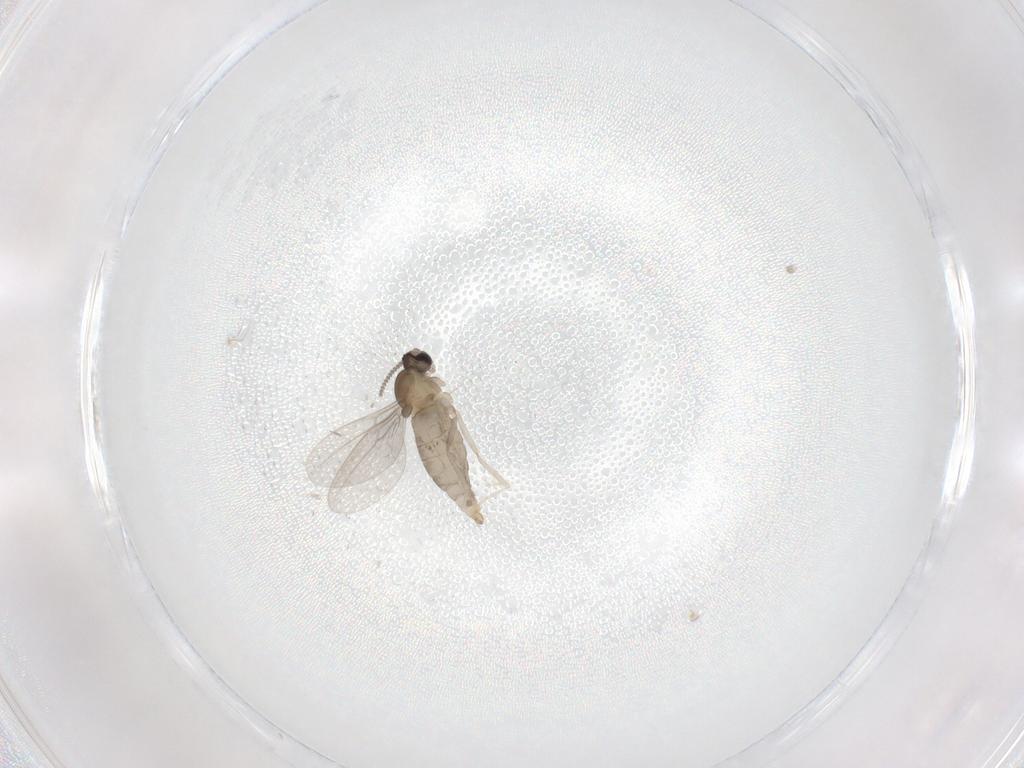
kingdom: Animalia
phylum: Arthropoda
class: Insecta
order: Diptera
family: Cecidomyiidae
